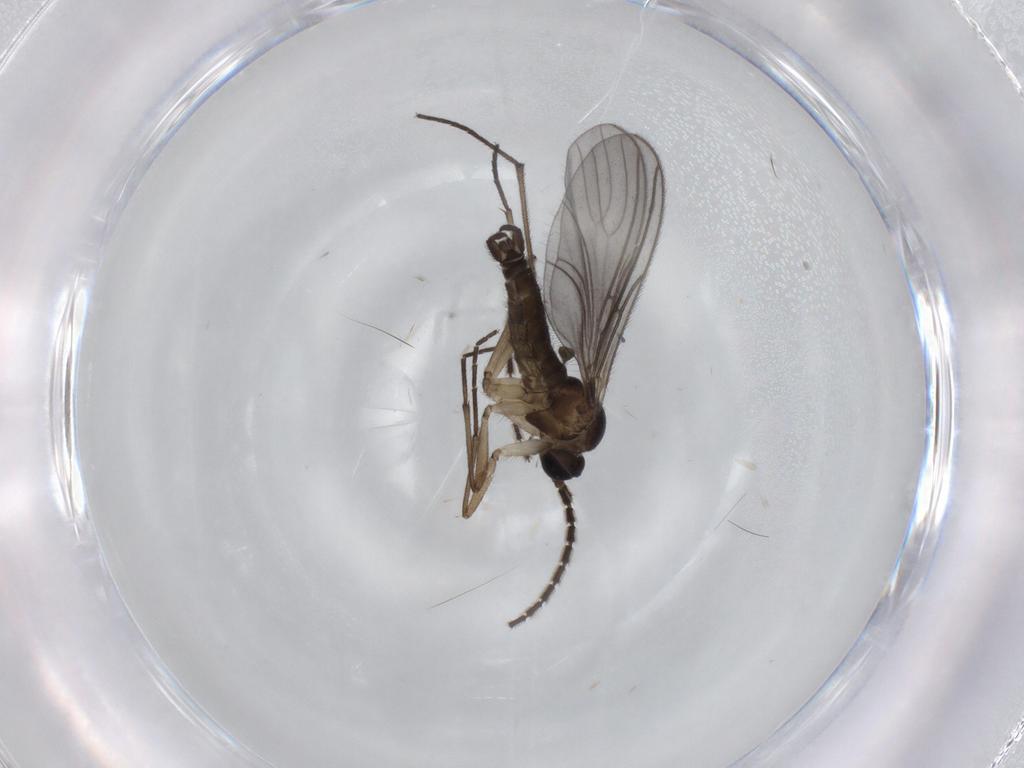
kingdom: Animalia
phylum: Arthropoda
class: Insecta
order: Diptera
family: Sciaridae
